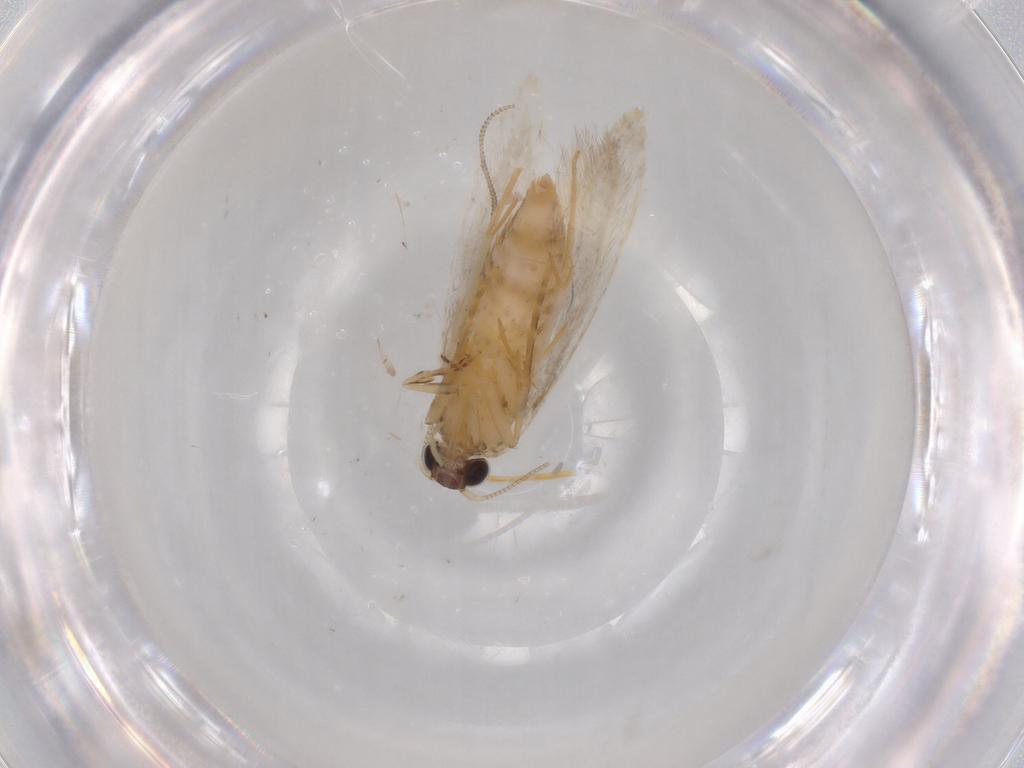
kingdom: Animalia
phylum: Arthropoda
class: Insecta
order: Lepidoptera
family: Tineidae
